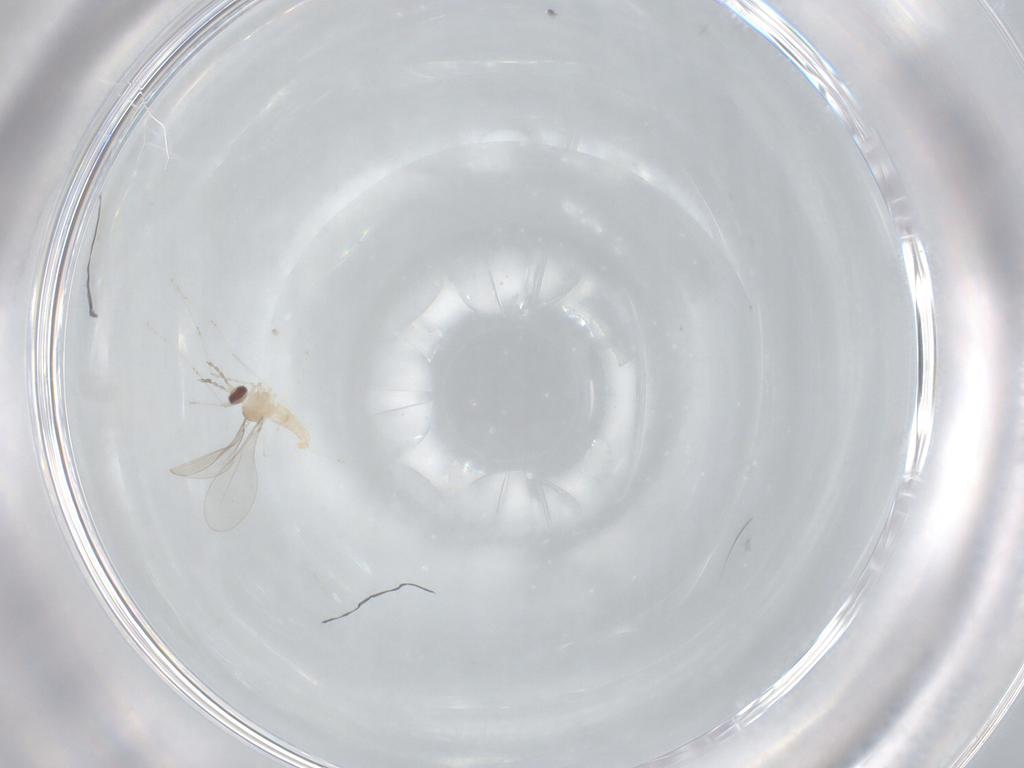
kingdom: Animalia
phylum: Arthropoda
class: Insecta
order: Diptera
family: Cecidomyiidae
